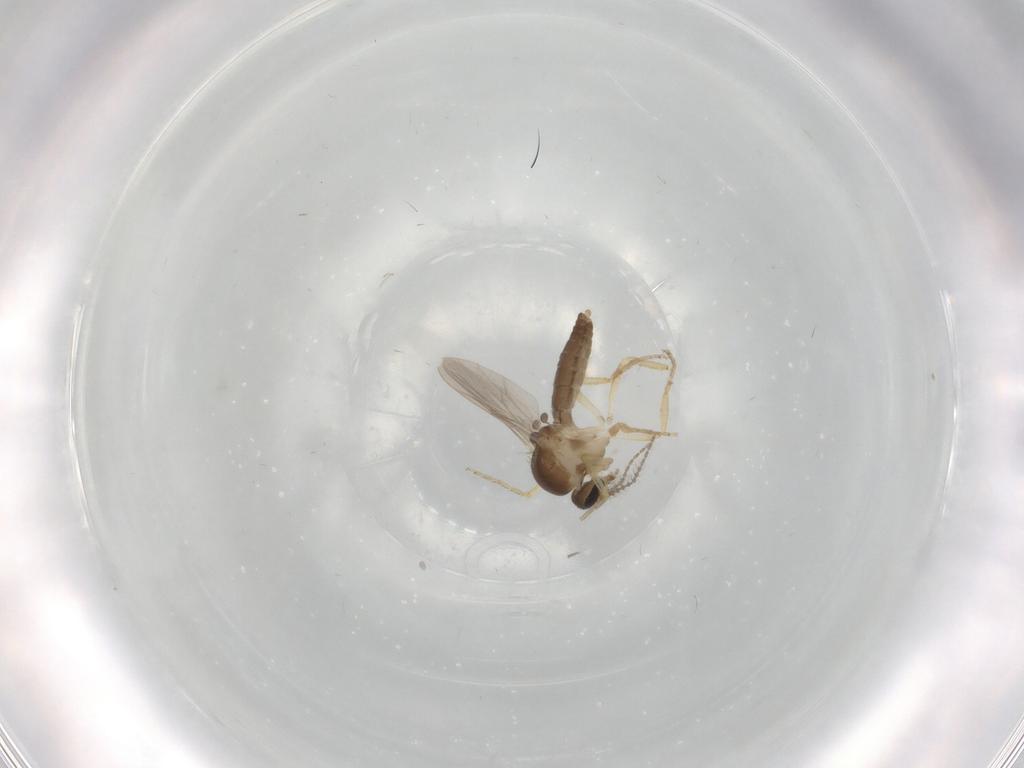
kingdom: Animalia
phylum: Arthropoda
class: Insecta
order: Diptera
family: Ceratopogonidae
